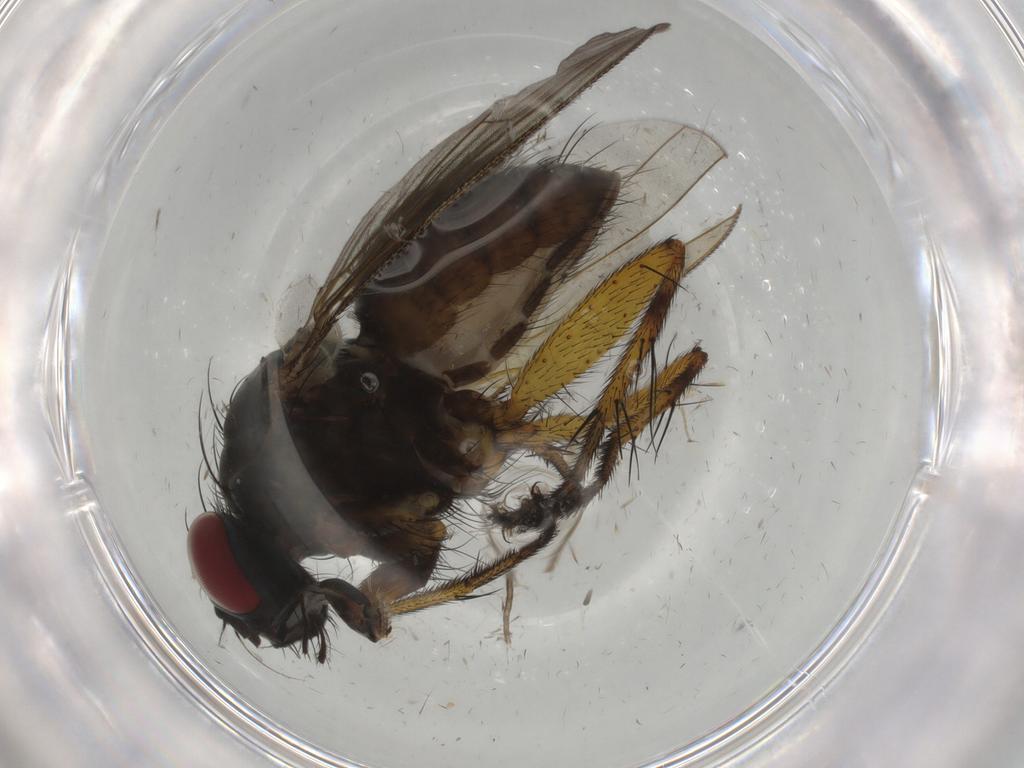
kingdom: Animalia
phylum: Arthropoda
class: Insecta
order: Diptera
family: Muscidae
